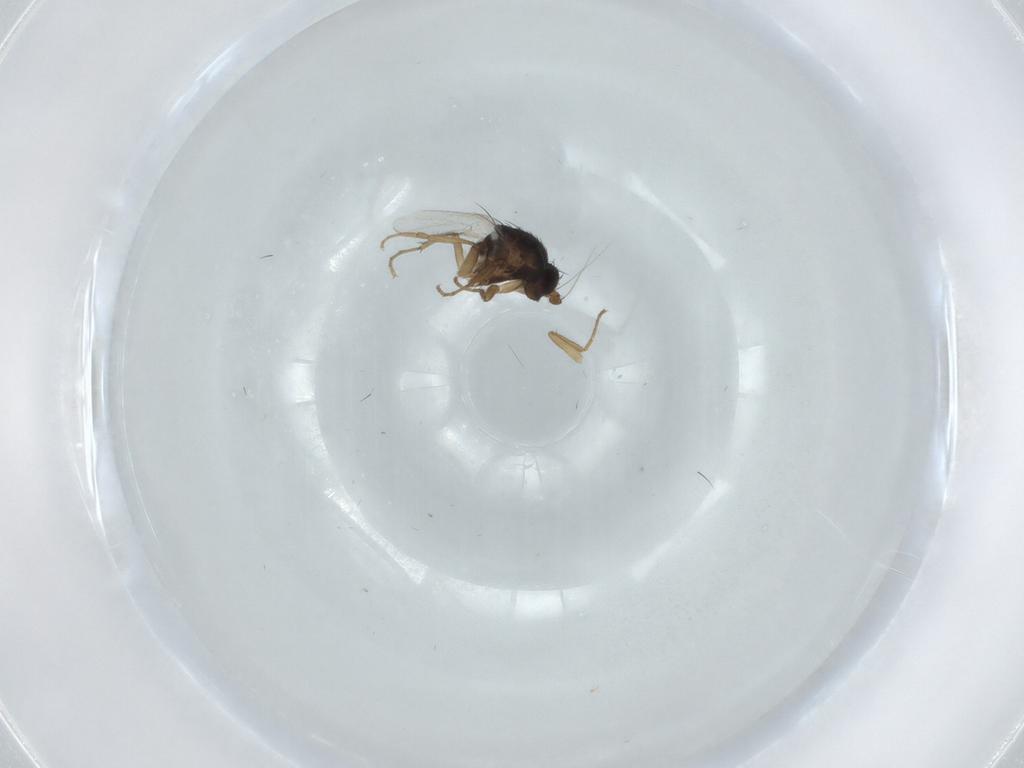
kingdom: Animalia
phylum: Arthropoda
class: Insecta
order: Diptera
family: Sphaeroceridae
